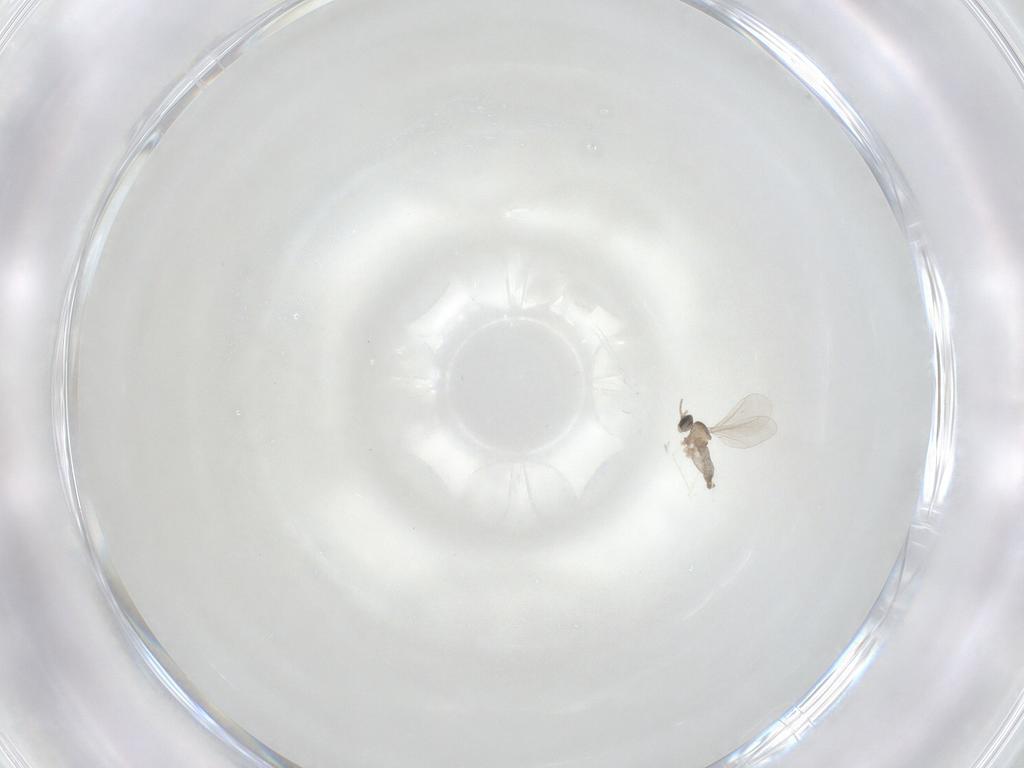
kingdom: Animalia
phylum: Arthropoda
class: Insecta
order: Diptera
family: Cecidomyiidae
